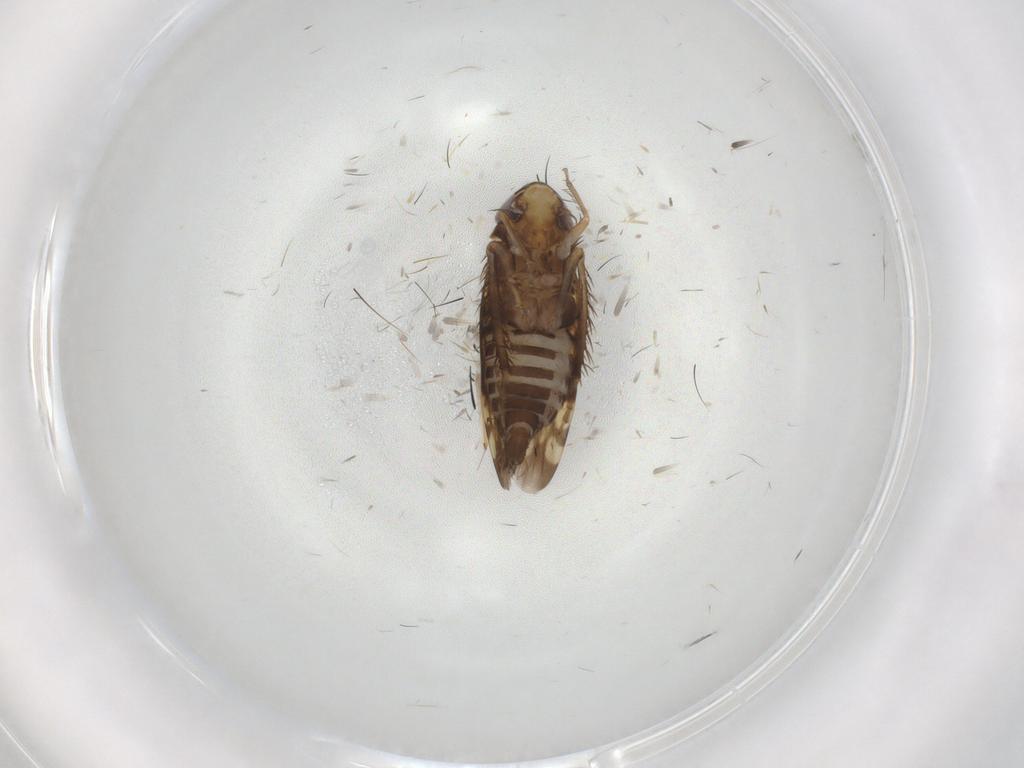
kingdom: Animalia
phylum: Arthropoda
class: Insecta
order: Hemiptera
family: Cicadellidae
